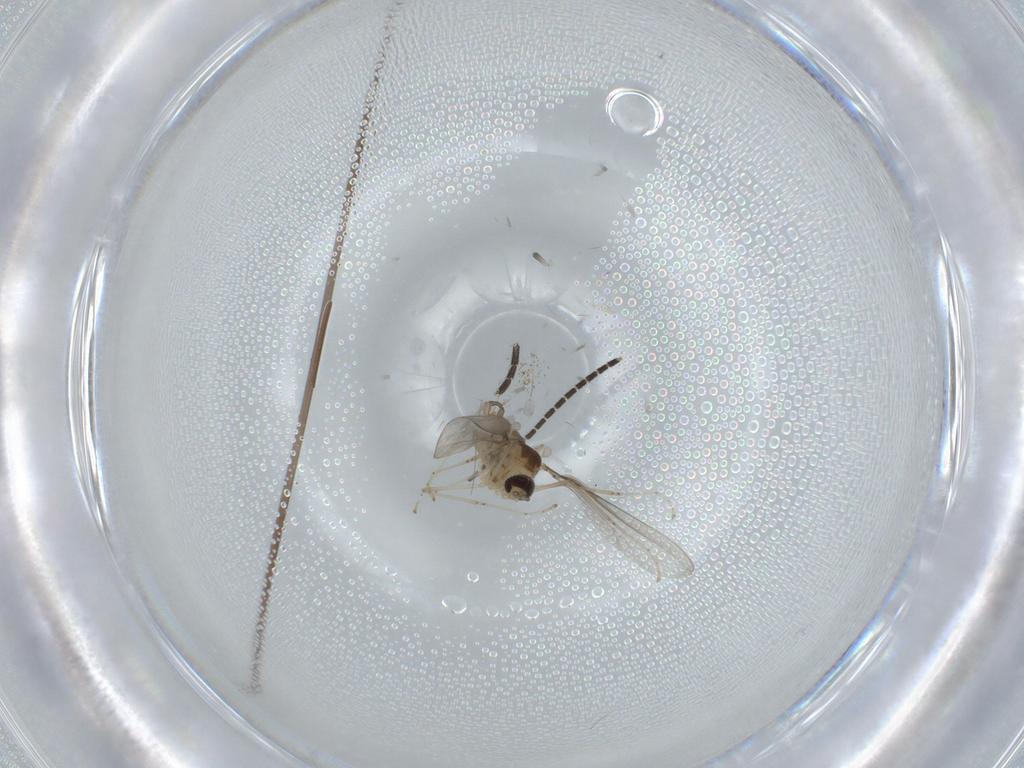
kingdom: Animalia
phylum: Arthropoda
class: Insecta
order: Diptera
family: Cecidomyiidae
